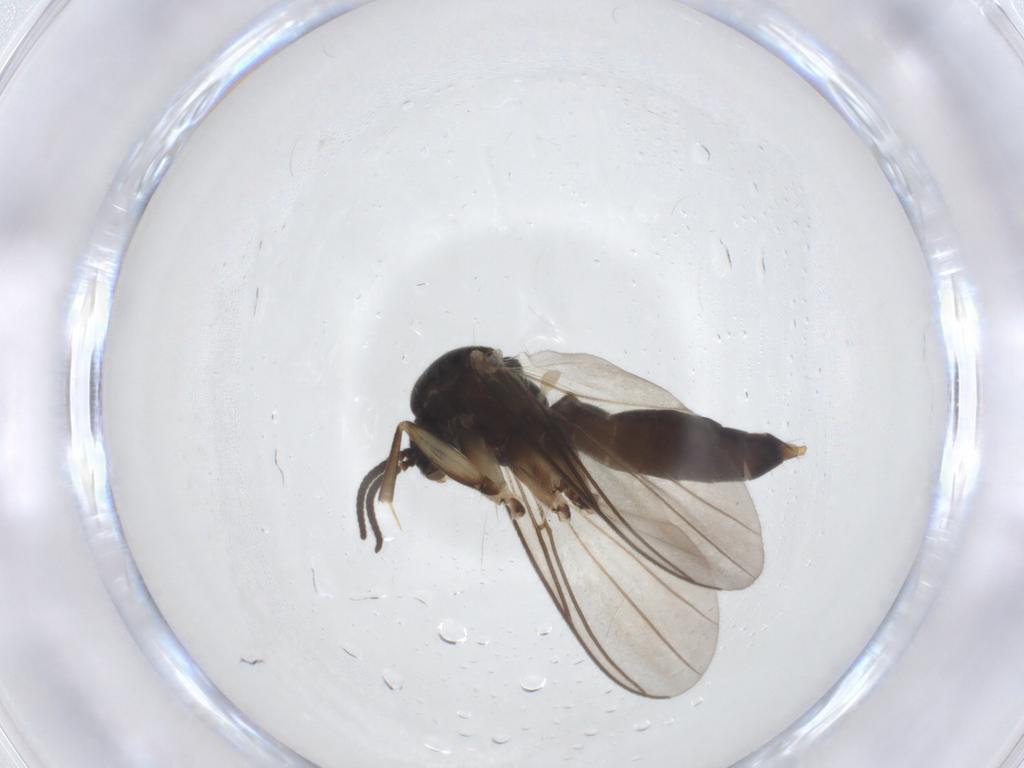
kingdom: Animalia
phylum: Arthropoda
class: Insecta
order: Diptera
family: Mycetophilidae
